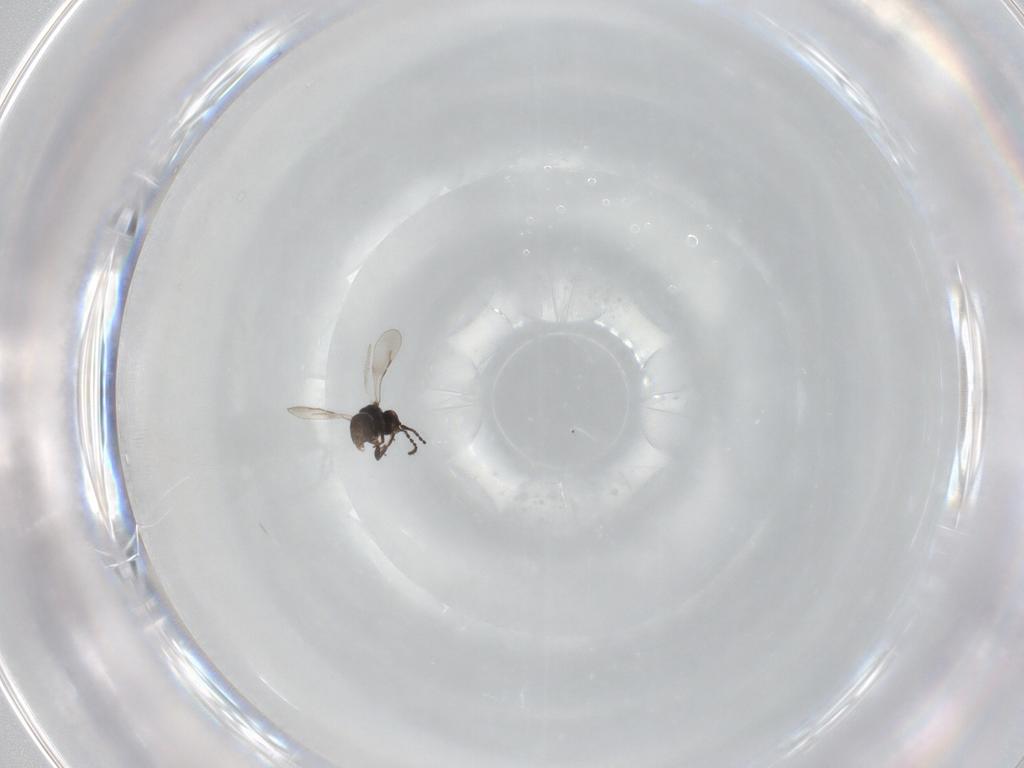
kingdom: Animalia
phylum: Arthropoda
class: Insecta
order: Hymenoptera
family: Ceraphronidae
